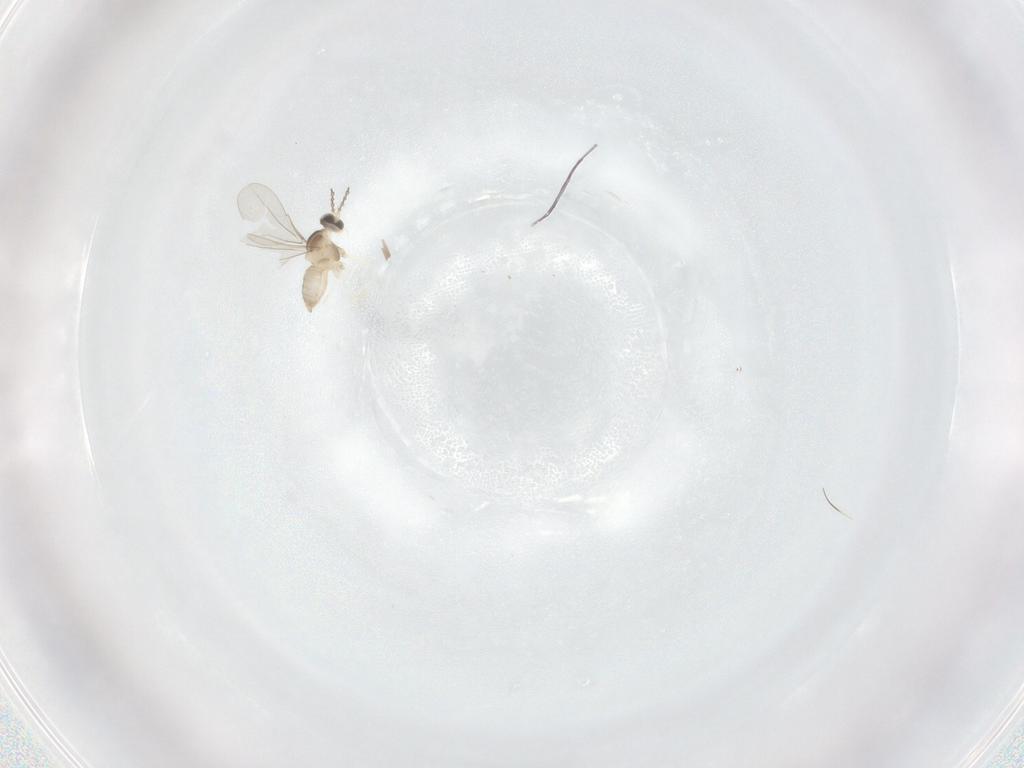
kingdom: Animalia
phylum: Arthropoda
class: Insecta
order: Diptera
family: Cecidomyiidae
